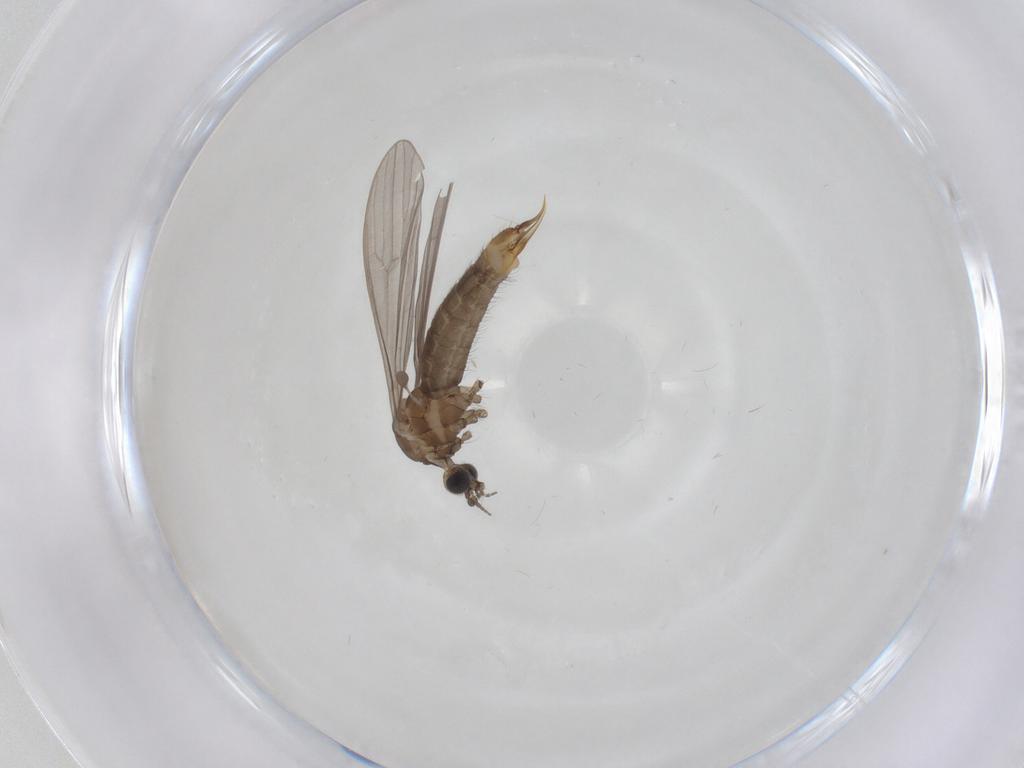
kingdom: Animalia
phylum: Arthropoda
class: Insecta
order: Diptera
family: Limoniidae
